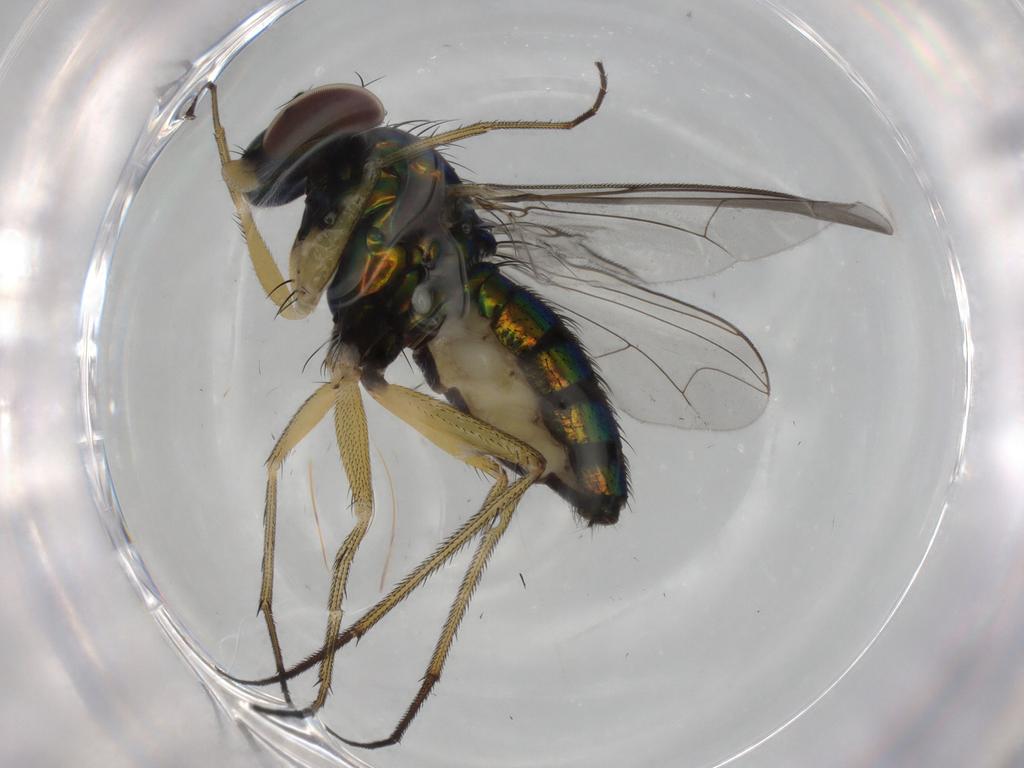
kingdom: Animalia
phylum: Arthropoda
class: Insecta
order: Diptera
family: Dolichopodidae
